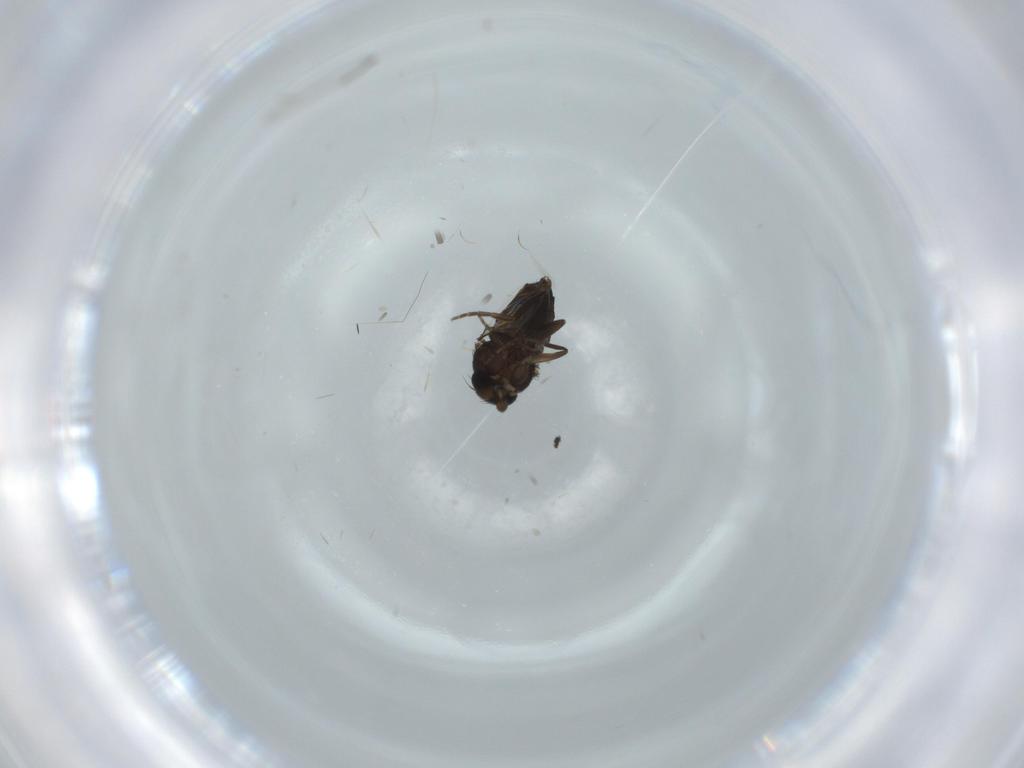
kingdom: Animalia
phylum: Arthropoda
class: Insecta
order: Diptera
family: Phoridae
